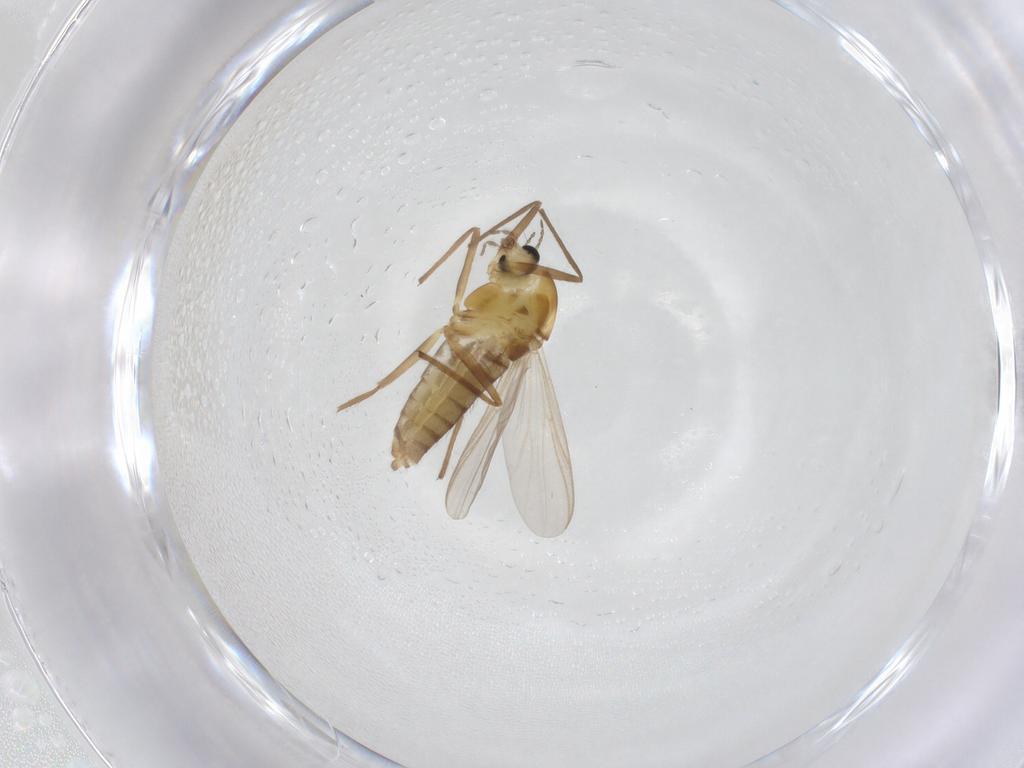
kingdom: Animalia
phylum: Arthropoda
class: Insecta
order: Diptera
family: Chironomidae
